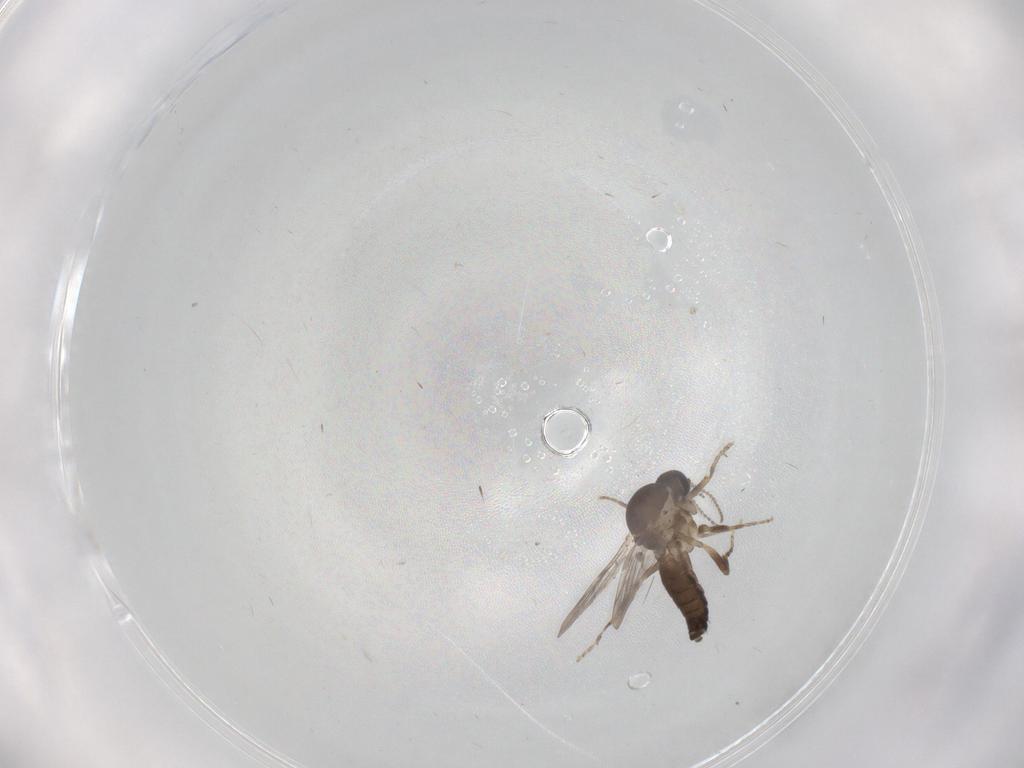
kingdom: Animalia
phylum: Arthropoda
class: Insecta
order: Diptera
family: Ceratopogonidae
